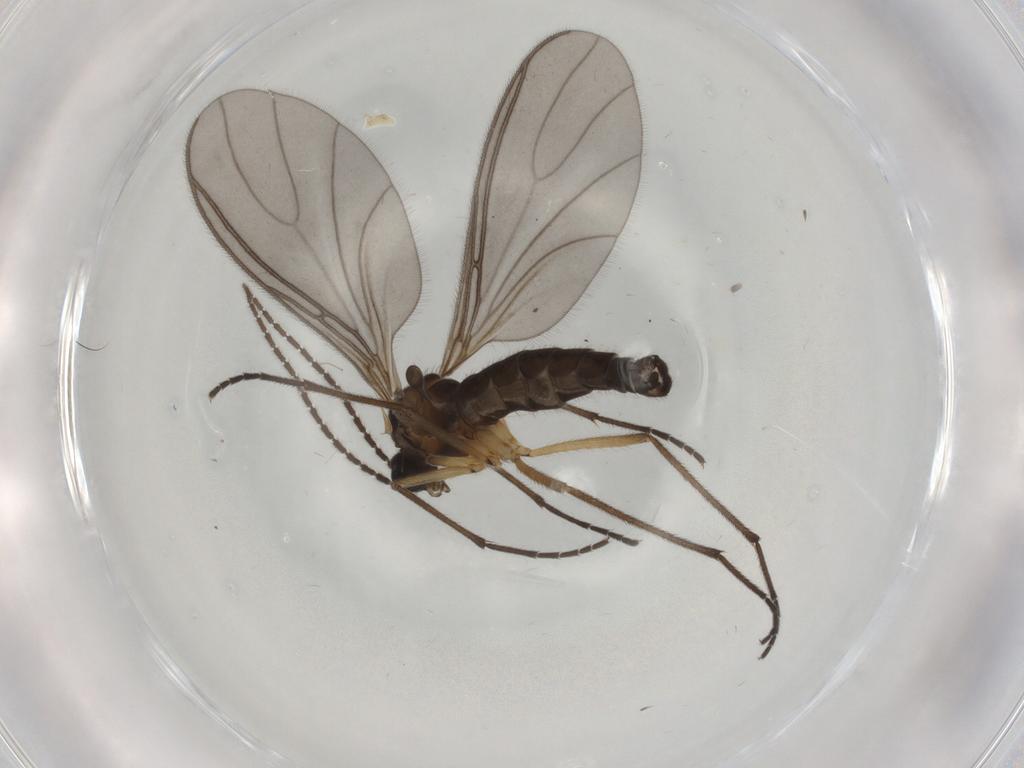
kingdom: Animalia
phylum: Arthropoda
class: Insecta
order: Diptera
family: Sciaridae
